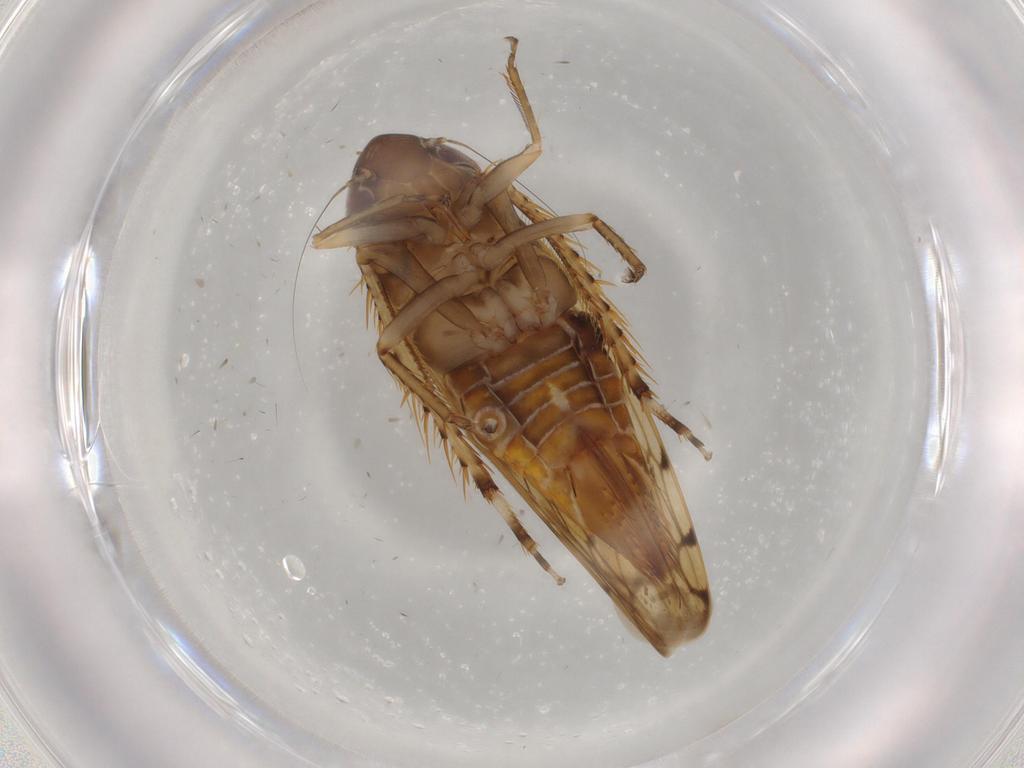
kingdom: Animalia
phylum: Arthropoda
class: Insecta
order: Hemiptera
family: Cicadellidae
